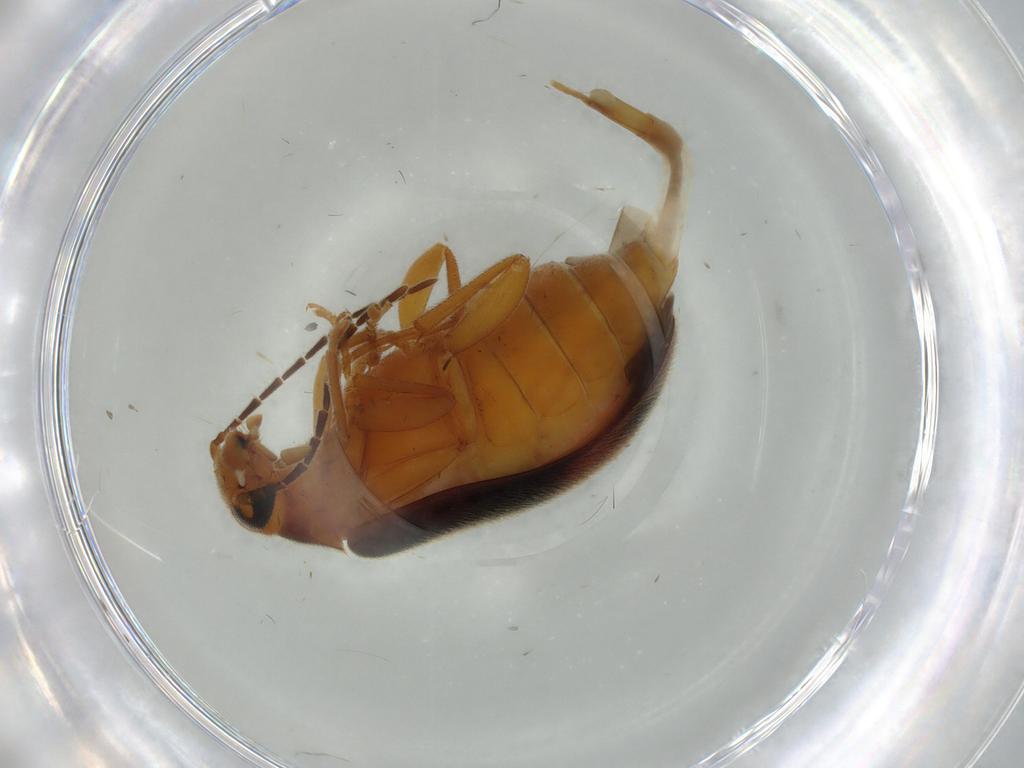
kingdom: Animalia
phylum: Arthropoda
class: Insecta
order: Coleoptera
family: Scraptiidae
